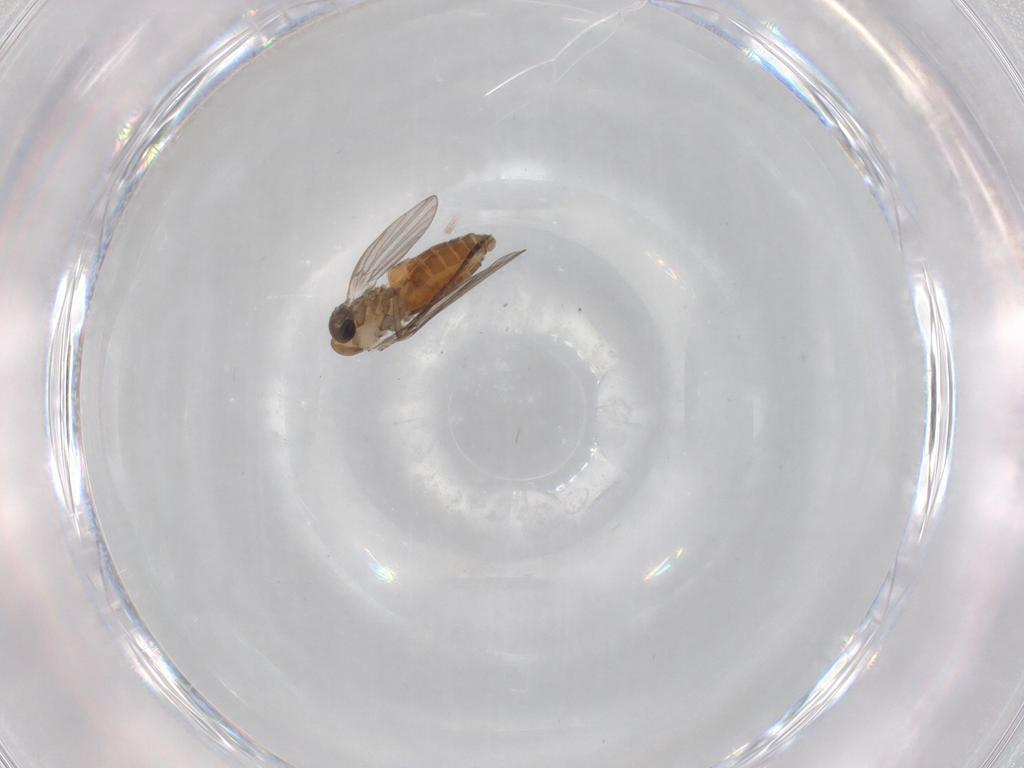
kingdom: Animalia
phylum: Arthropoda
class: Insecta
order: Diptera
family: Psychodidae
